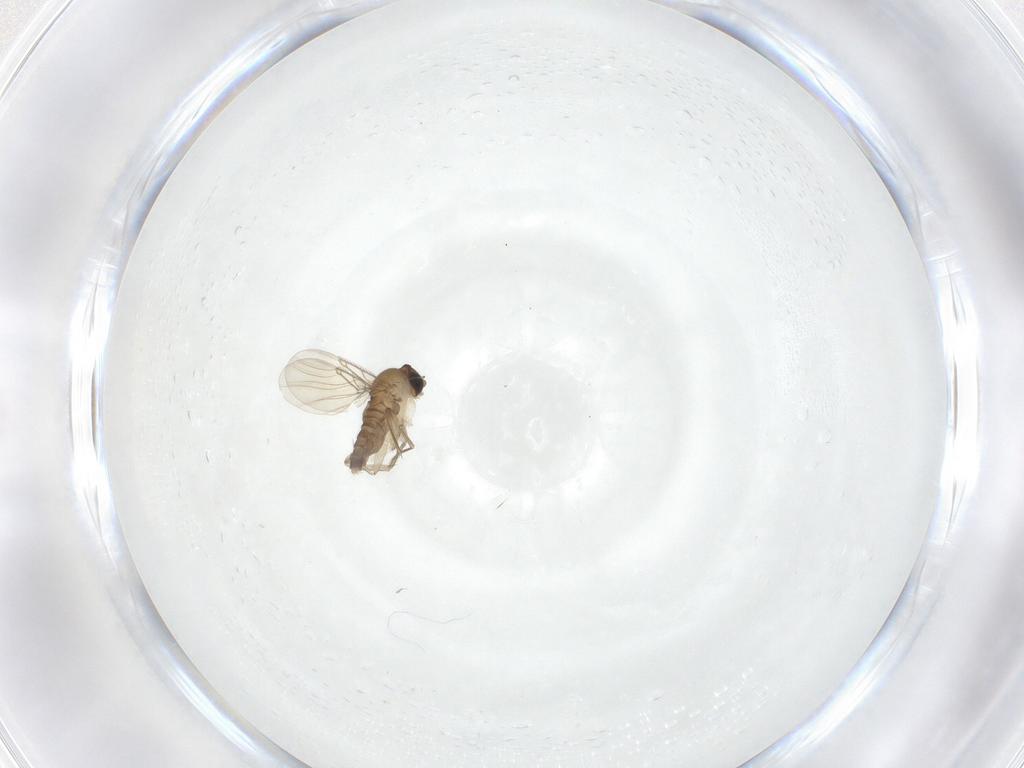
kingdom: Animalia
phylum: Arthropoda
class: Insecta
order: Diptera
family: Phoridae
